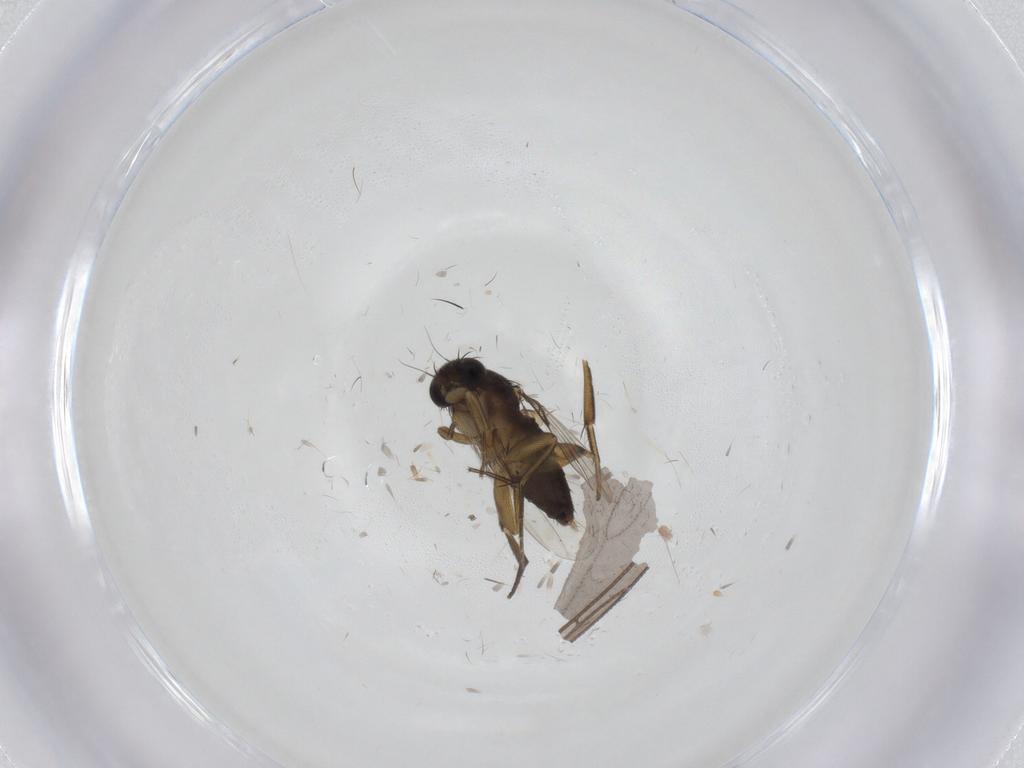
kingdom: Animalia
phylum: Arthropoda
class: Insecta
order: Diptera
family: Phoridae
